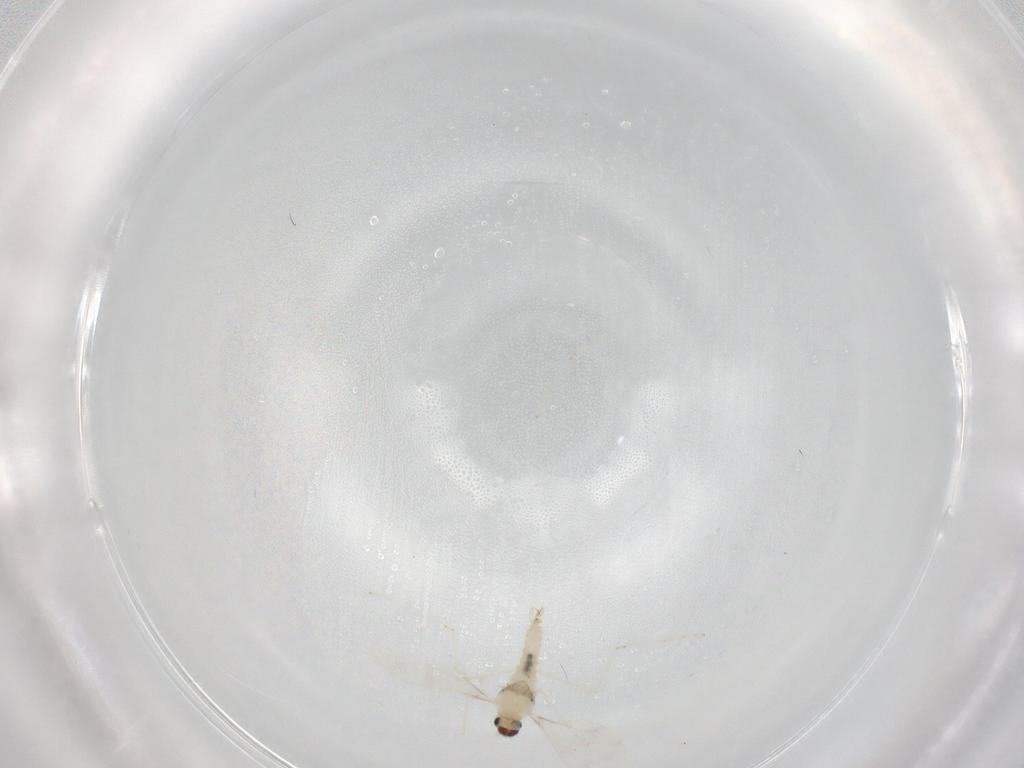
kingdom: Animalia
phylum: Arthropoda
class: Insecta
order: Diptera
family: Cecidomyiidae
